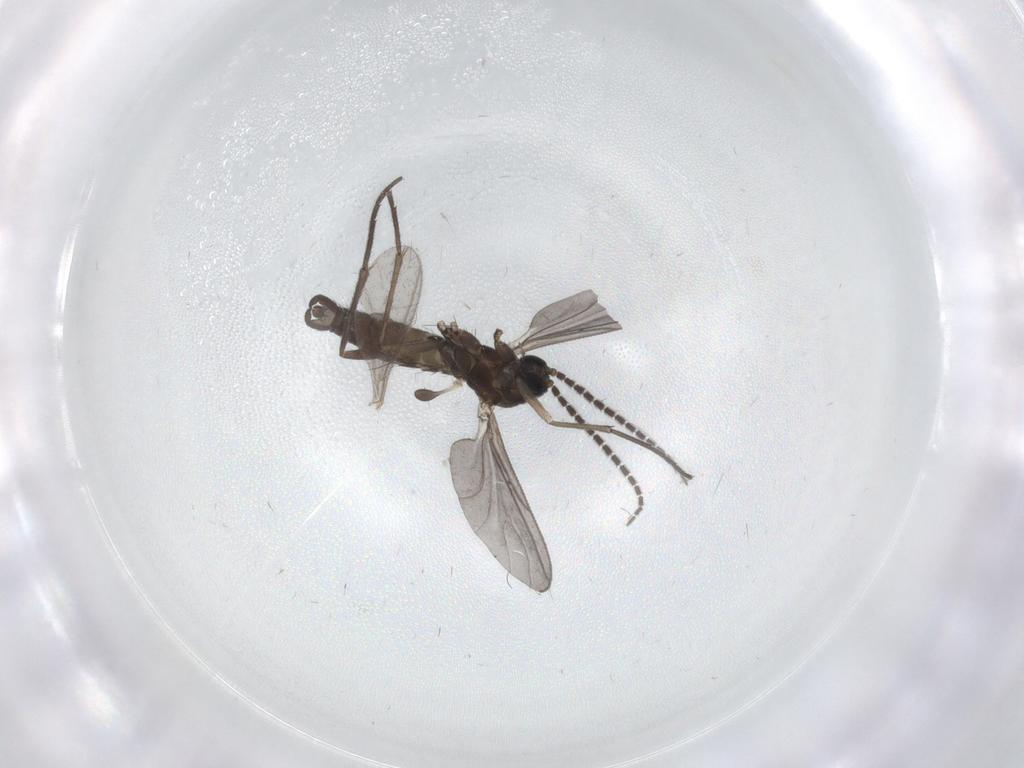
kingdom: Animalia
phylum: Arthropoda
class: Insecta
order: Diptera
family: Sciaridae
